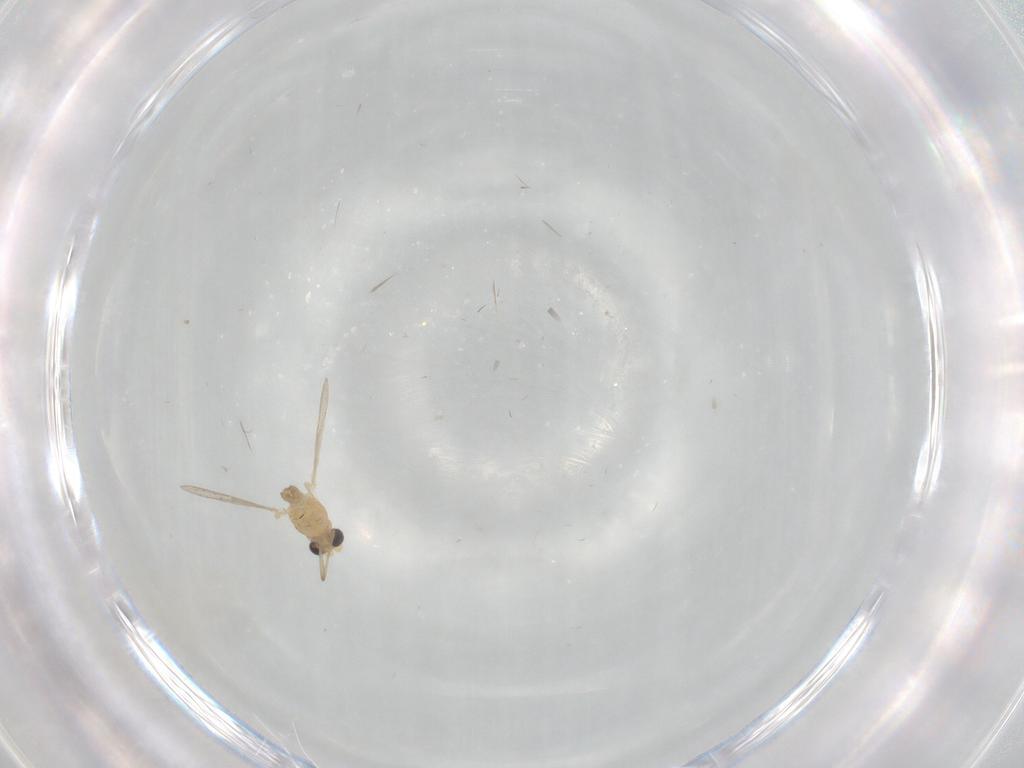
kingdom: Animalia
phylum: Arthropoda
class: Insecta
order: Diptera
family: Chironomidae
